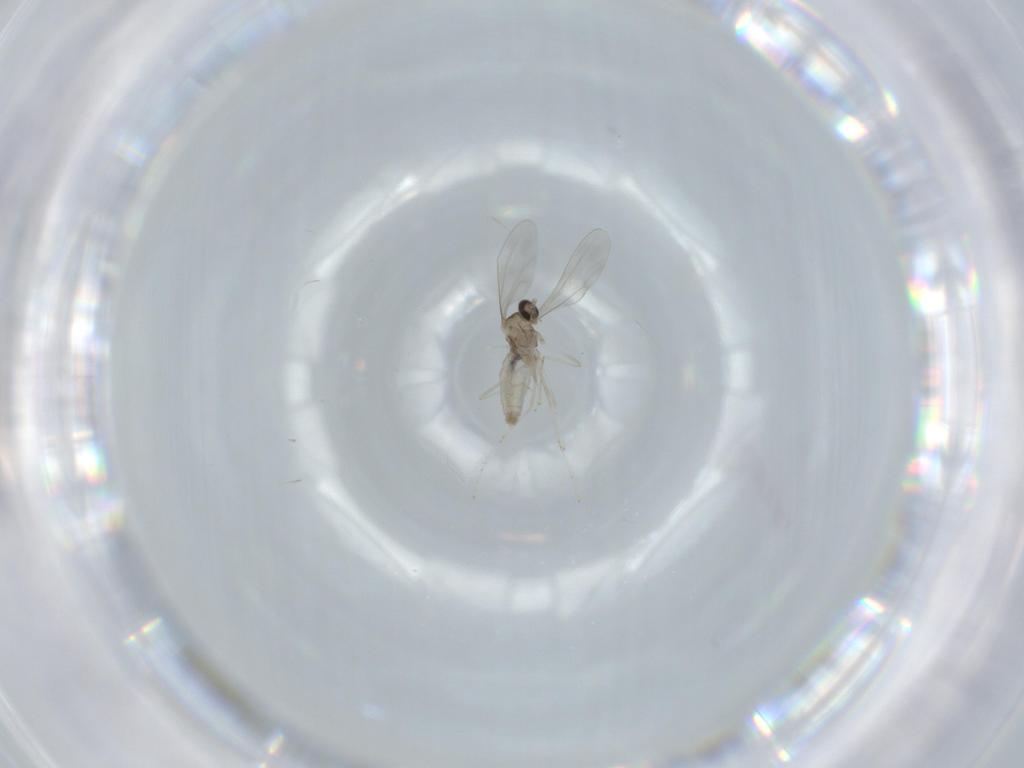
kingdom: Animalia
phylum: Arthropoda
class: Insecta
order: Diptera
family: Cecidomyiidae
